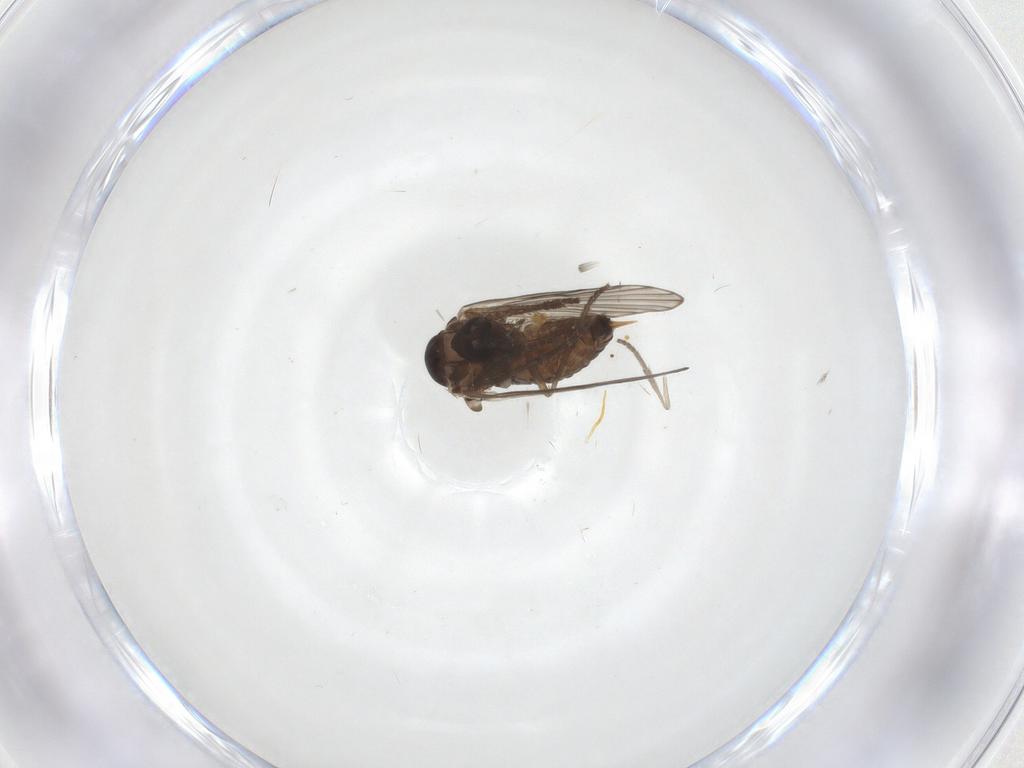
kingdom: Animalia
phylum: Arthropoda
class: Insecta
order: Diptera
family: Psychodidae
